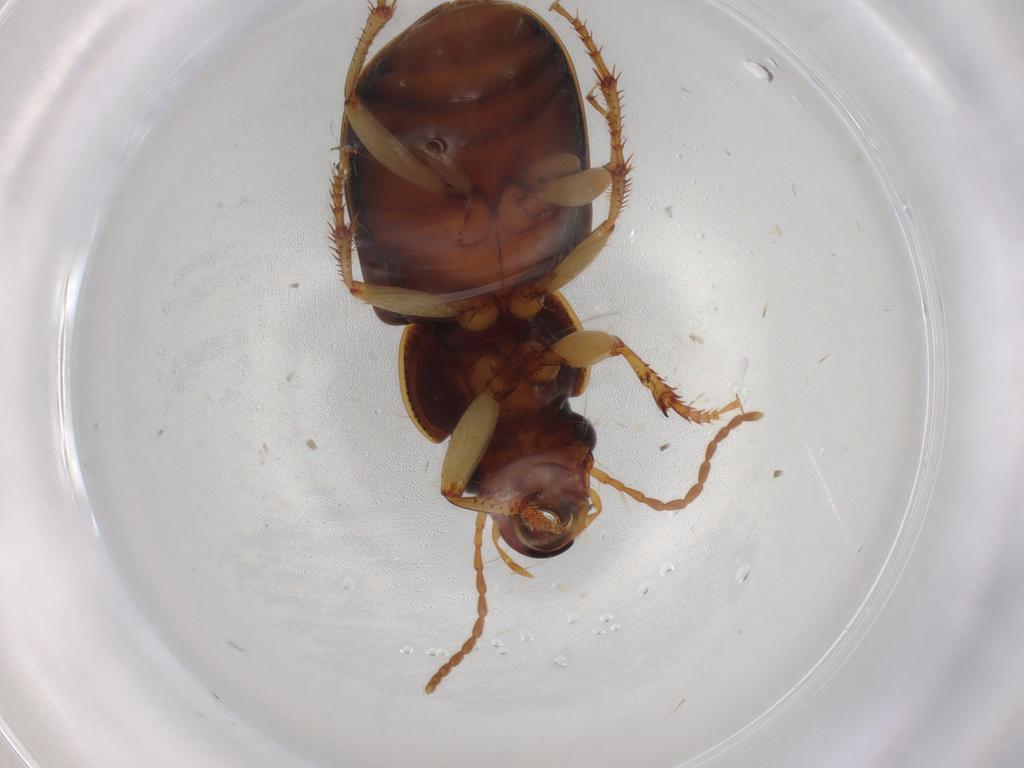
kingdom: Animalia
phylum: Arthropoda
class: Insecta
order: Coleoptera
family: Carabidae
